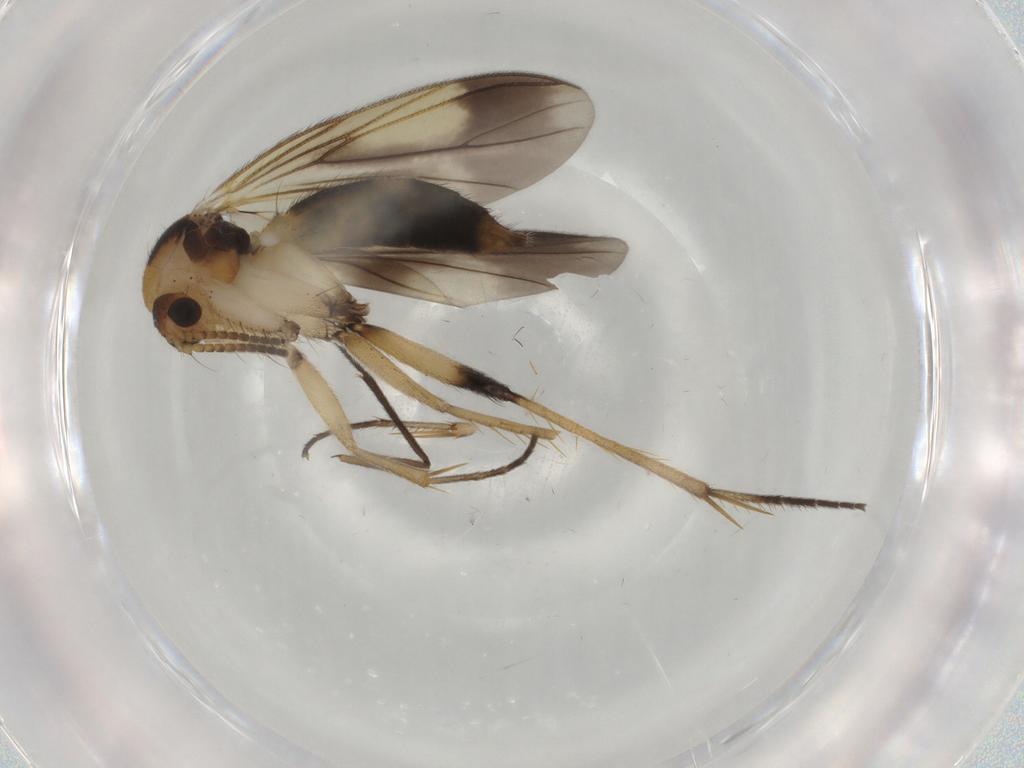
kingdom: Animalia
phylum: Arthropoda
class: Insecta
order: Diptera
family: Mycetophilidae
